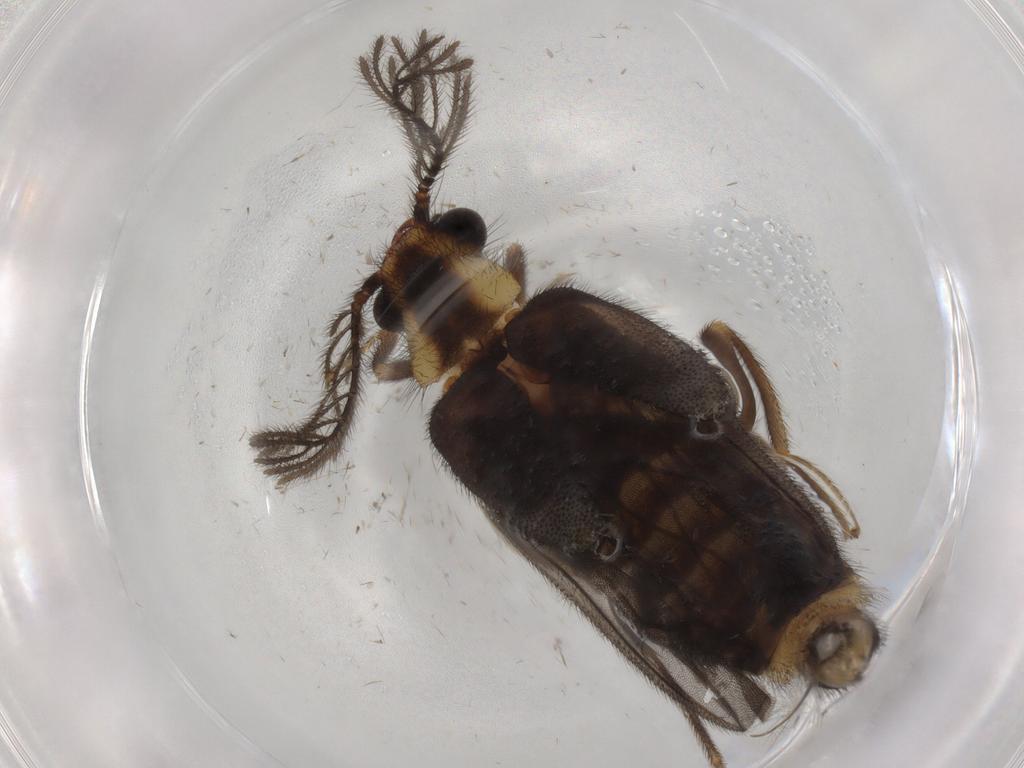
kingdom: Animalia
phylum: Arthropoda
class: Insecta
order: Coleoptera
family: Phengodidae
